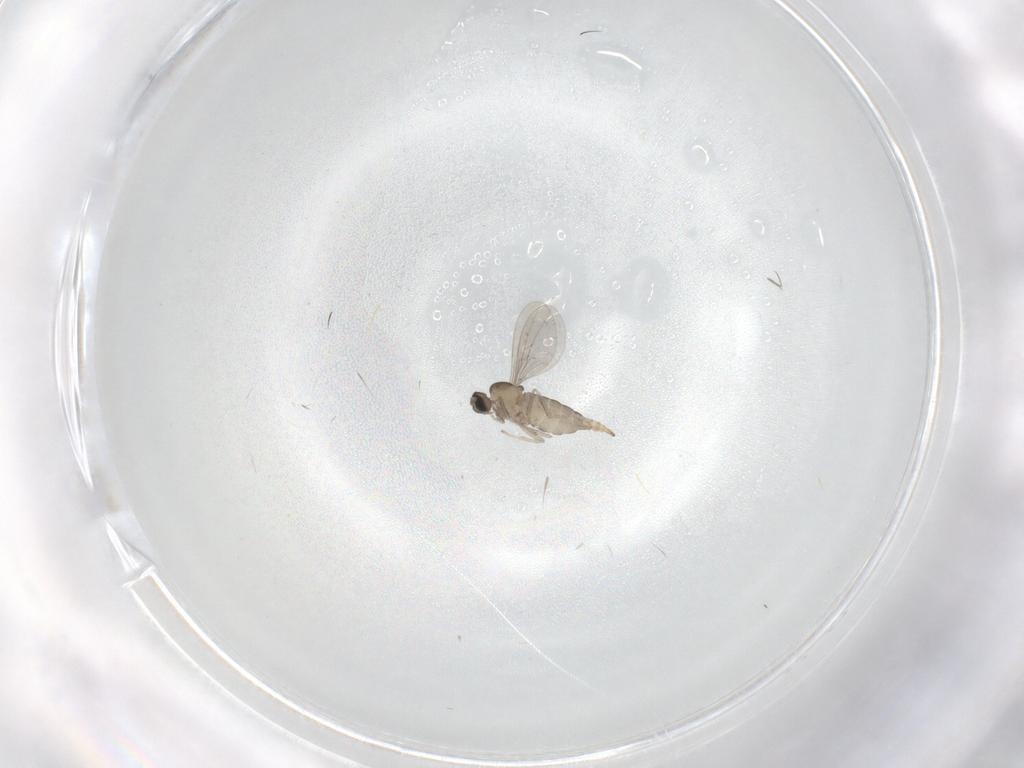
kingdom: Animalia
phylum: Arthropoda
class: Insecta
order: Diptera
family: Cecidomyiidae
